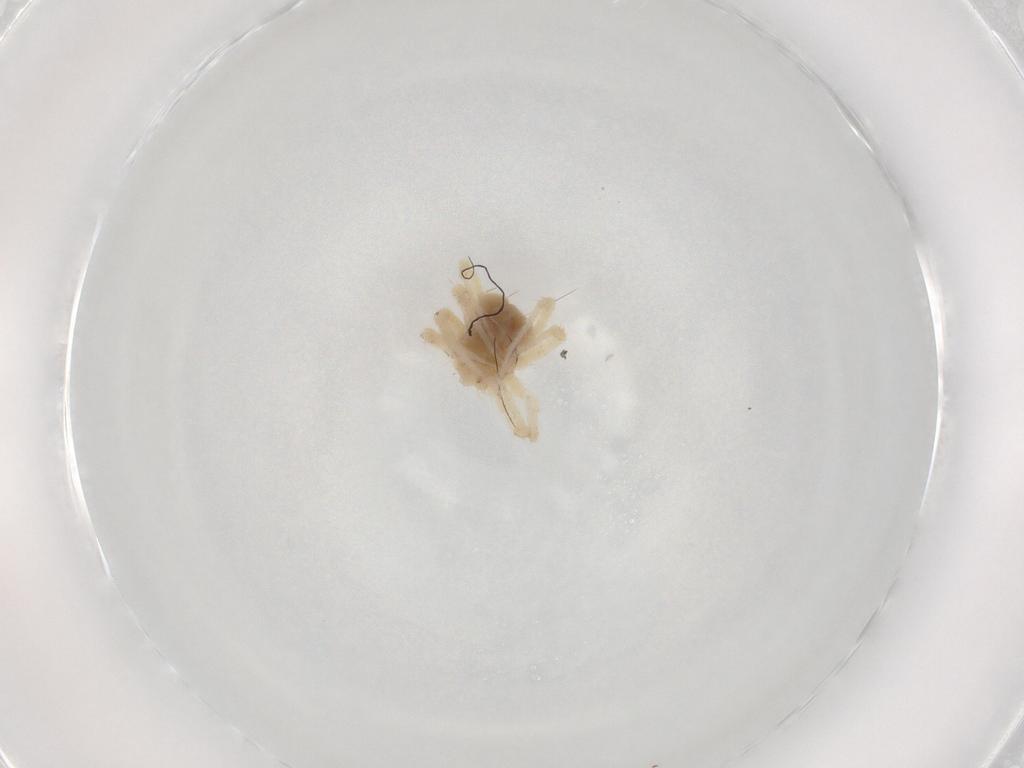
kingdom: Animalia
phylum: Arthropoda
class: Arachnida
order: Trombidiformes
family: Anystidae
